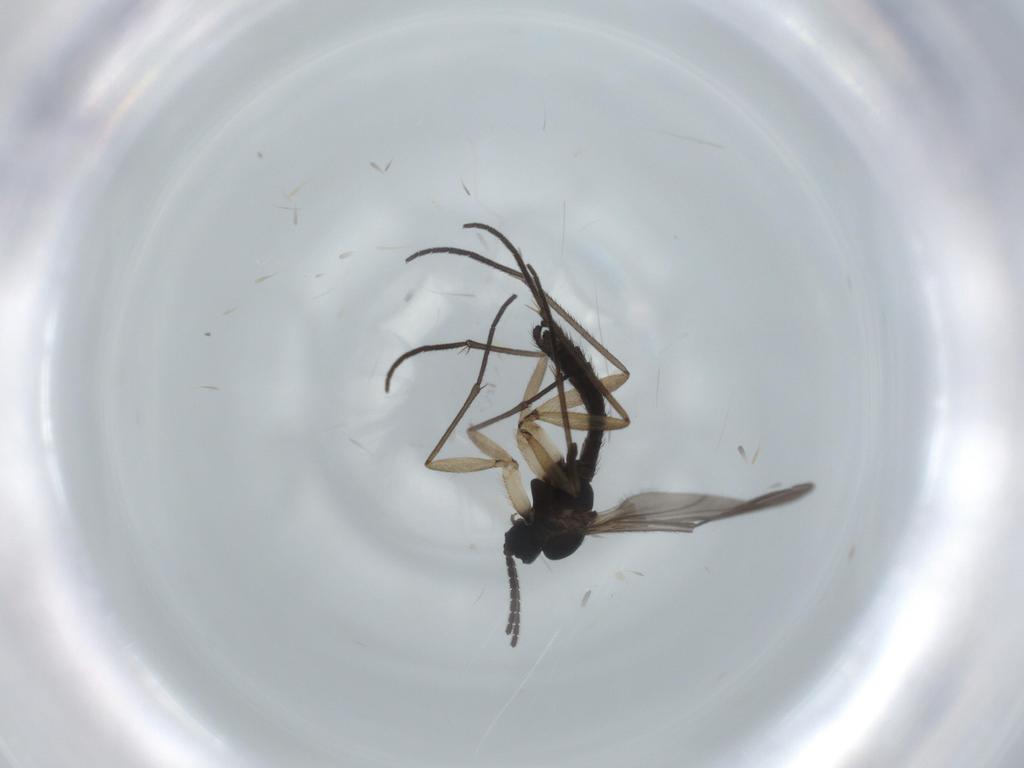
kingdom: Animalia
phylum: Arthropoda
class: Insecta
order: Diptera
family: Sciaridae
